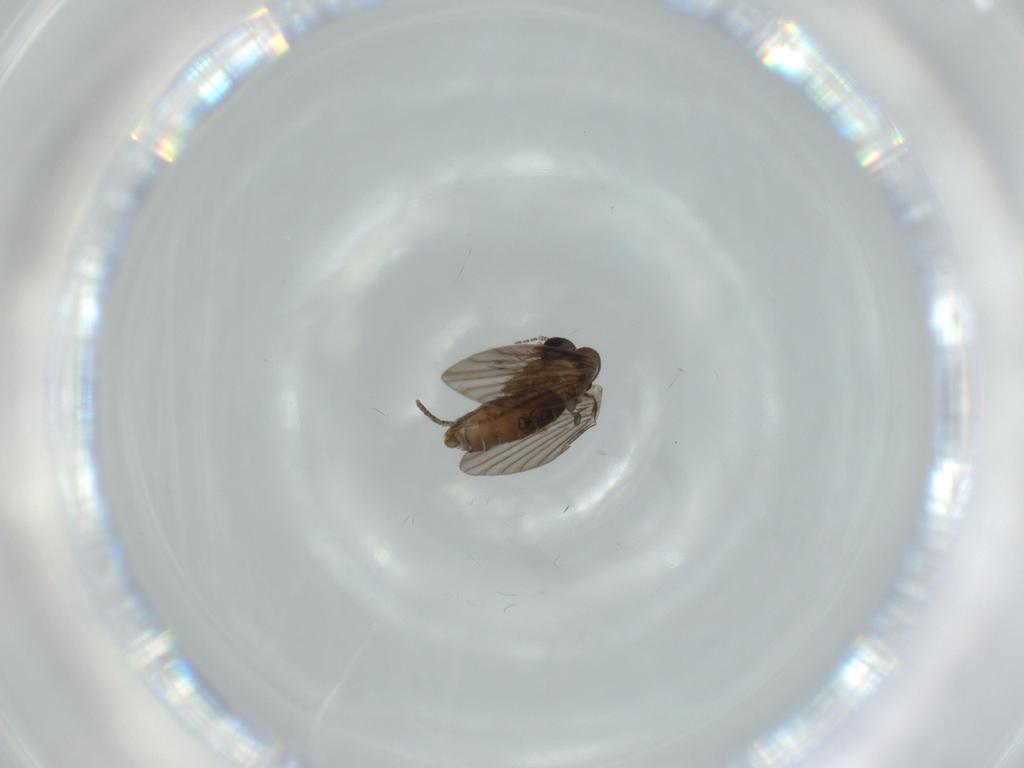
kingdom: Animalia
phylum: Arthropoda
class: Insecta
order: Diptera
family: Psychodidae
